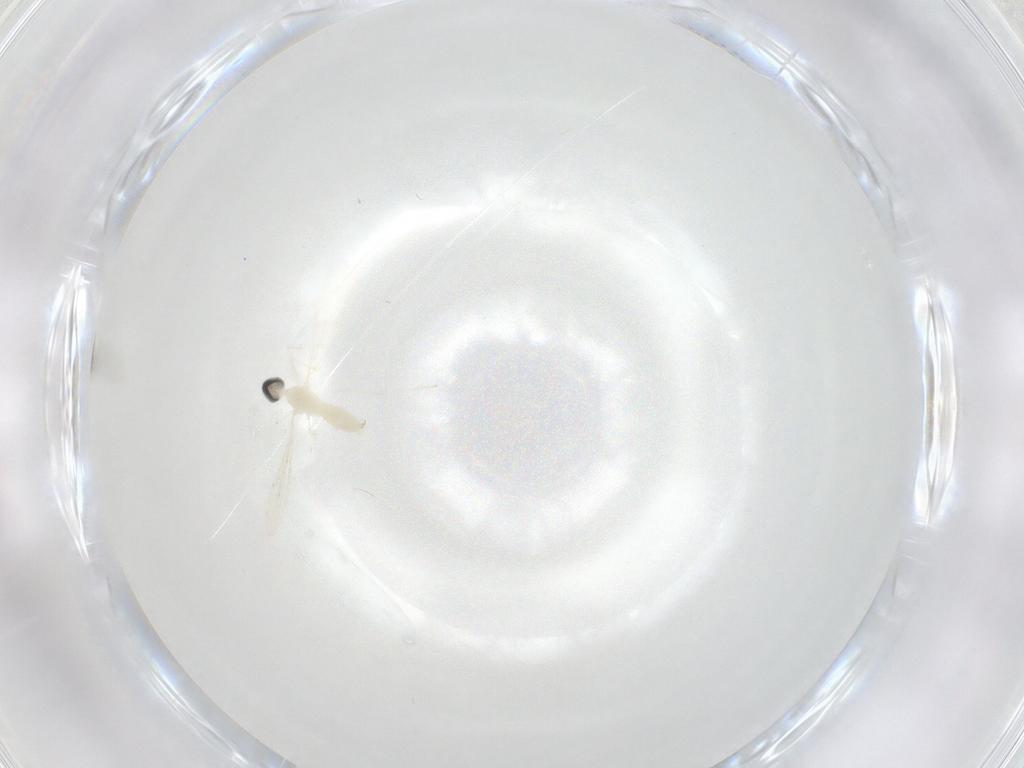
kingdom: Animalia
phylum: Arthropoda
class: Insecta
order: Diptera
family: Cecidomyiidae
